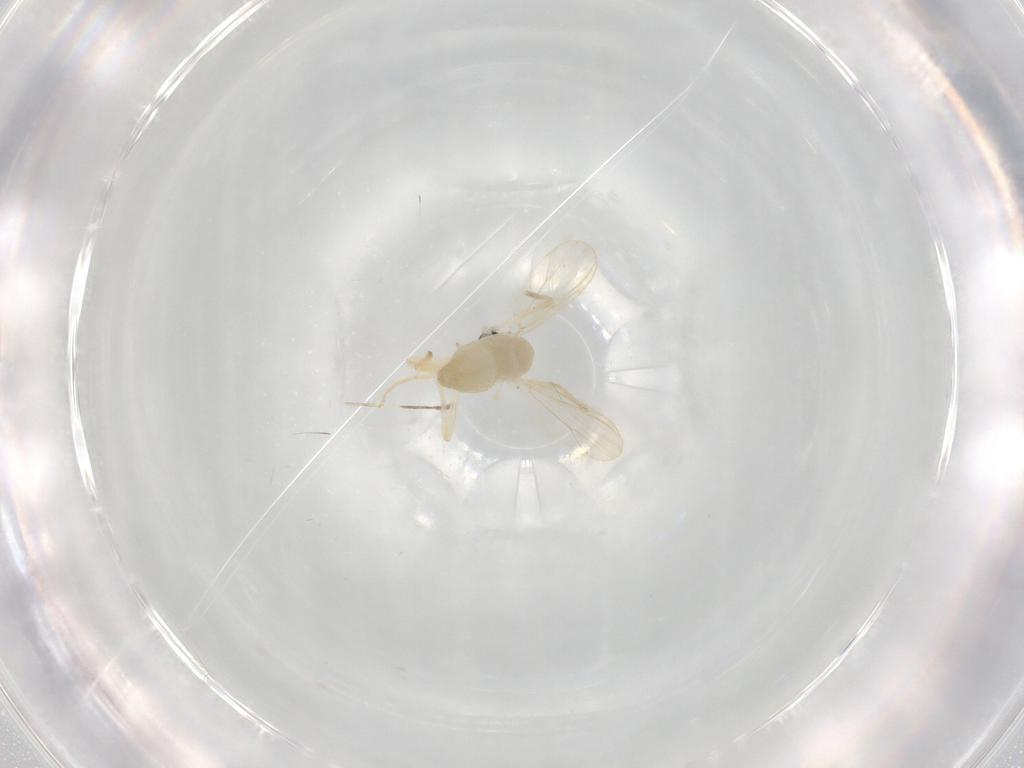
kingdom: Animalia
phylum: Arthropoda
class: Insecta
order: Diptera
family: Chironomidae
